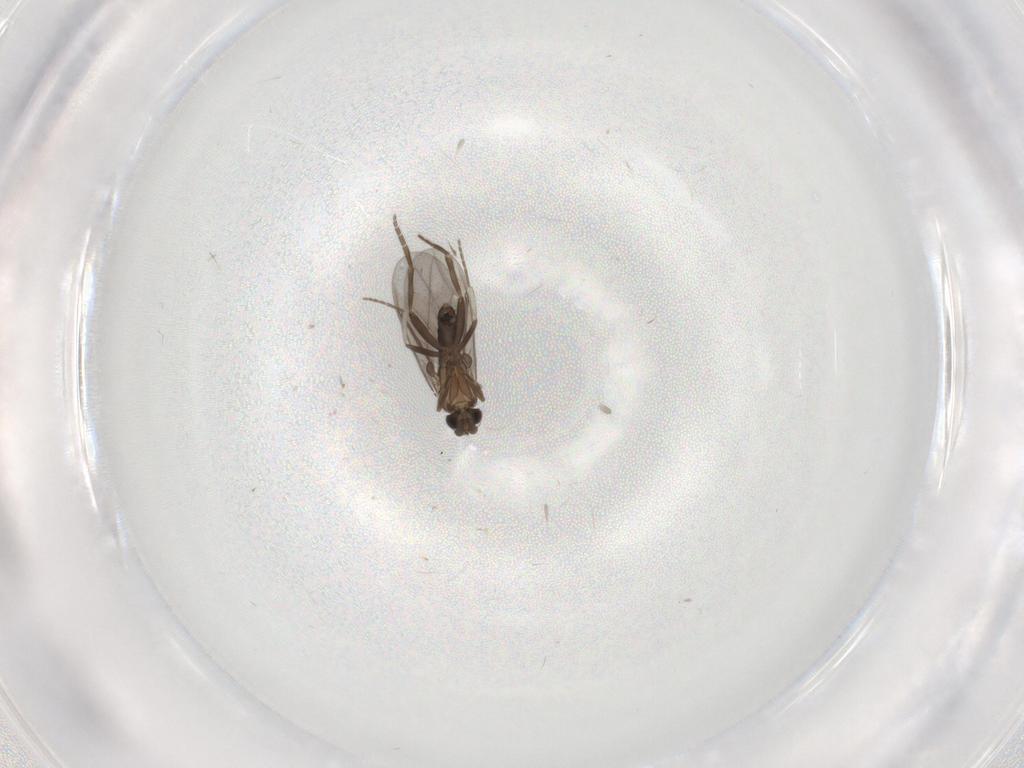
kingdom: Animalia
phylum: Arthropoda
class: Insecta
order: Diptera
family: Phoridae
